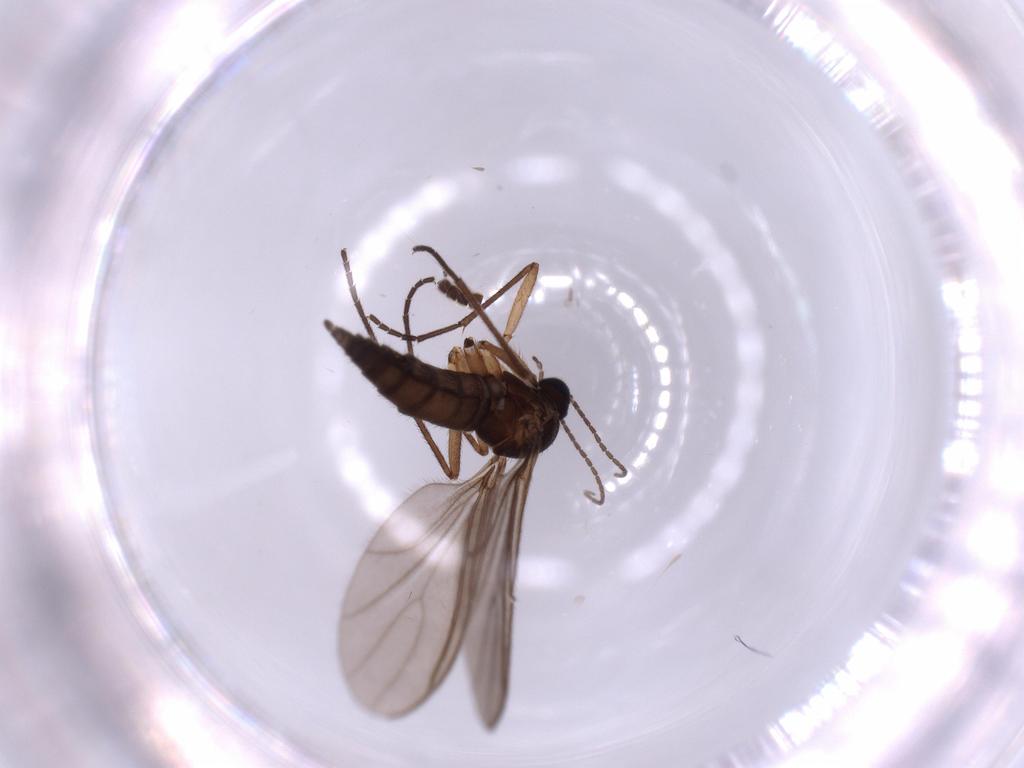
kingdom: Animalia
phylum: Arthropoda
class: Insecta
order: Diptera
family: Mycetophilidae
